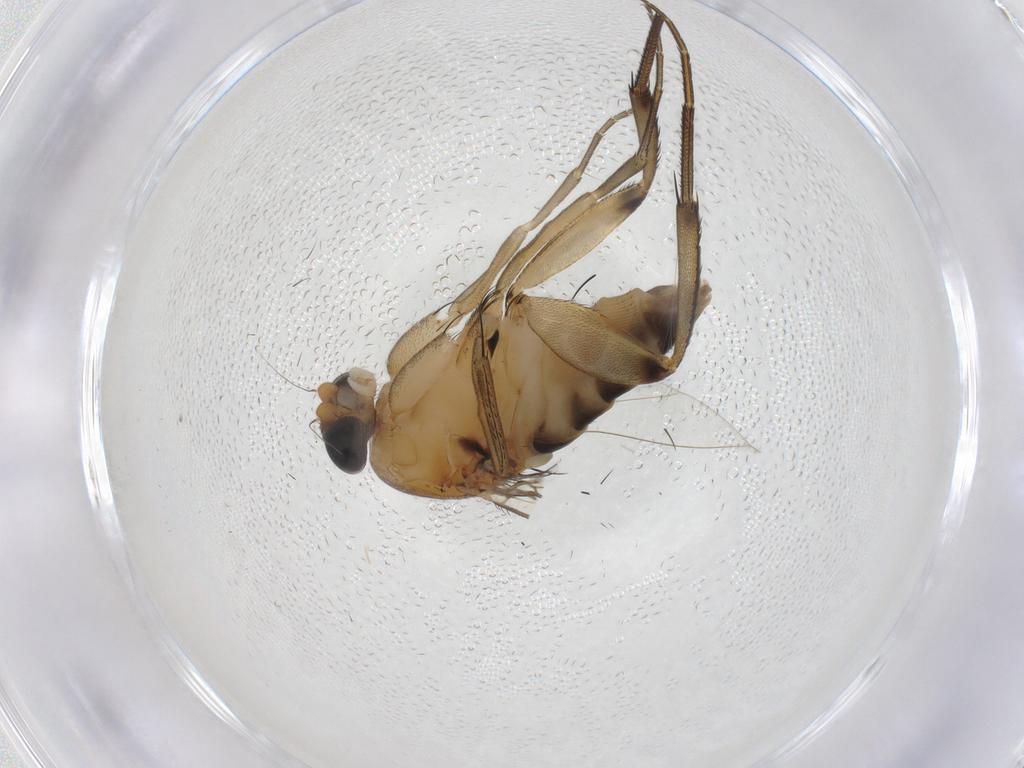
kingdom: Animalia
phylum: Arthropoda
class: Insecta
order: Diptera
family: Phoridae
